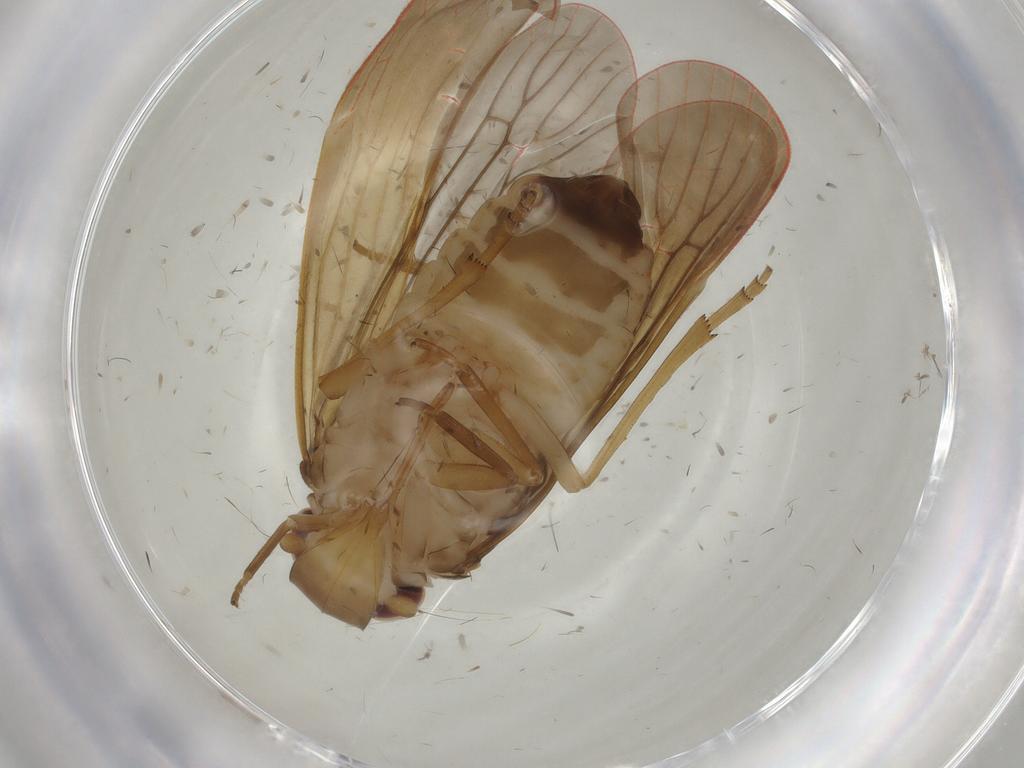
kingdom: Animalia
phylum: Arthropoda
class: Insecta
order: Hemiptera
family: Achilidae
